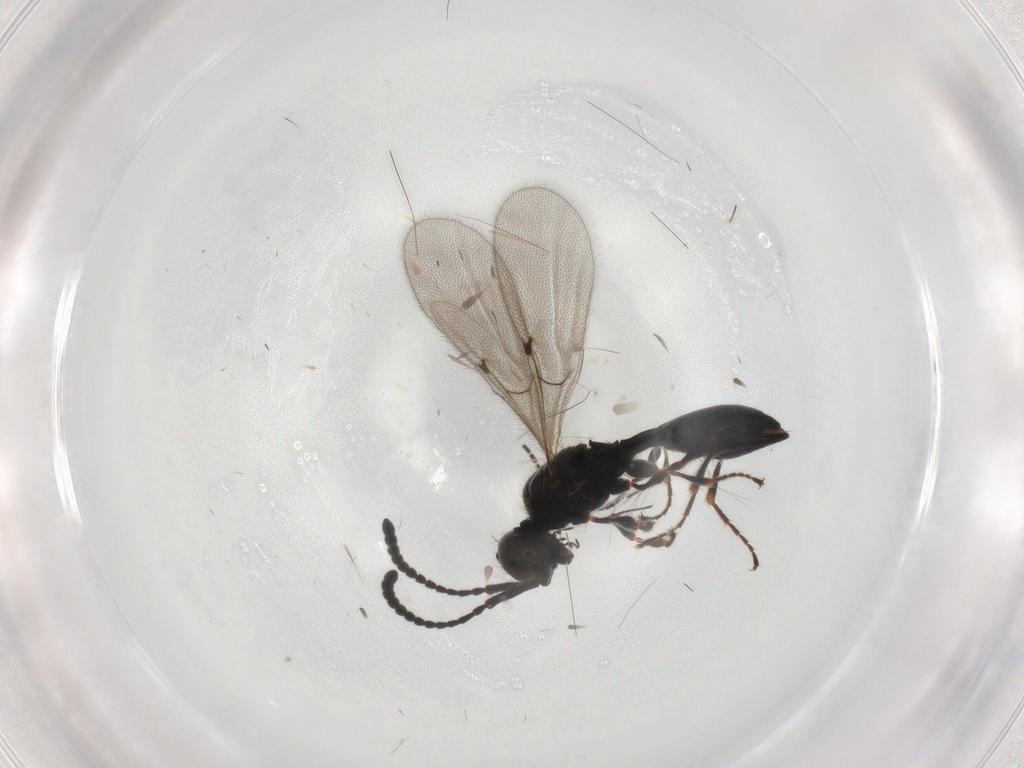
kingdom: Animalia
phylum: Arthropoda
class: Insecta
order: Hymenoptera
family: Diapriidae
